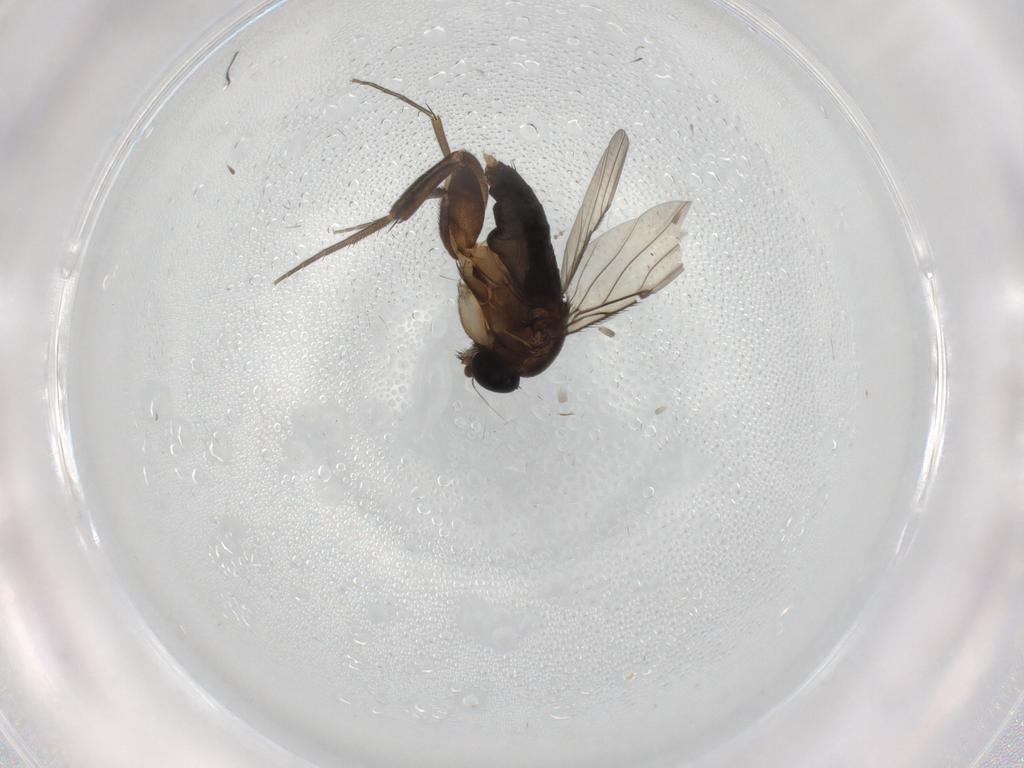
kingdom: Animalia
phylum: Arthropoda
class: Insecta
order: Diptera
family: Phoridae
